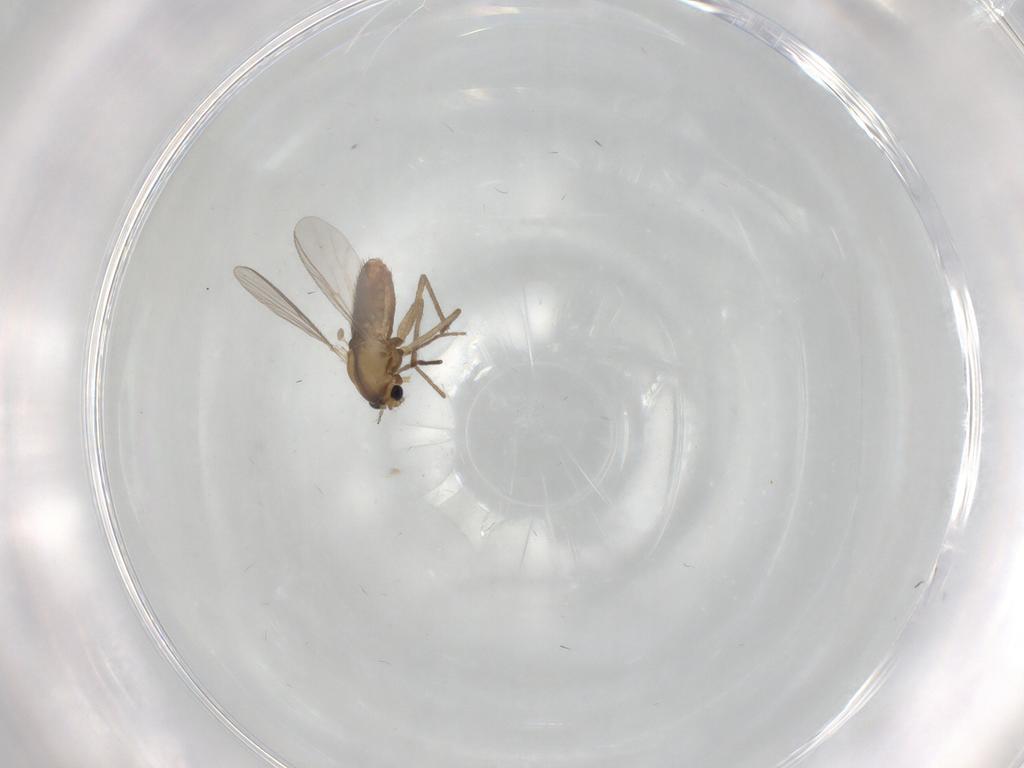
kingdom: Animalia
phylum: Arthropoda
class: Insecta
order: Diptera
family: Chironomidae
